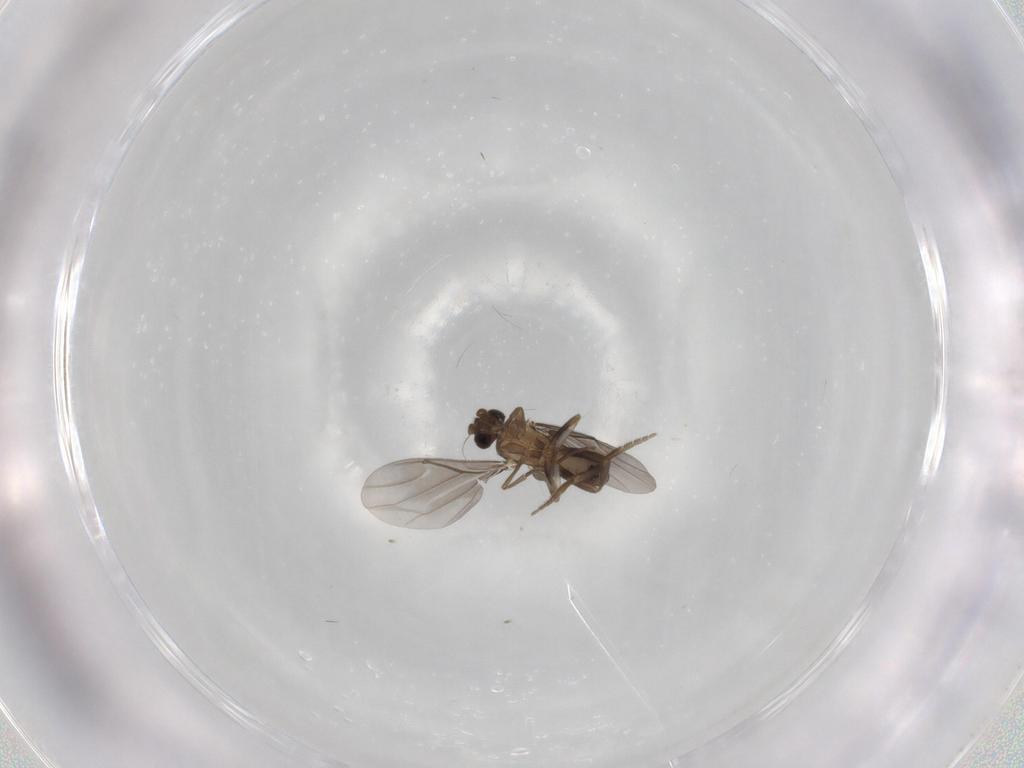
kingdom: Animalia
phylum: Arthropoda
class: Insecta
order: Diptera
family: Phoridae
